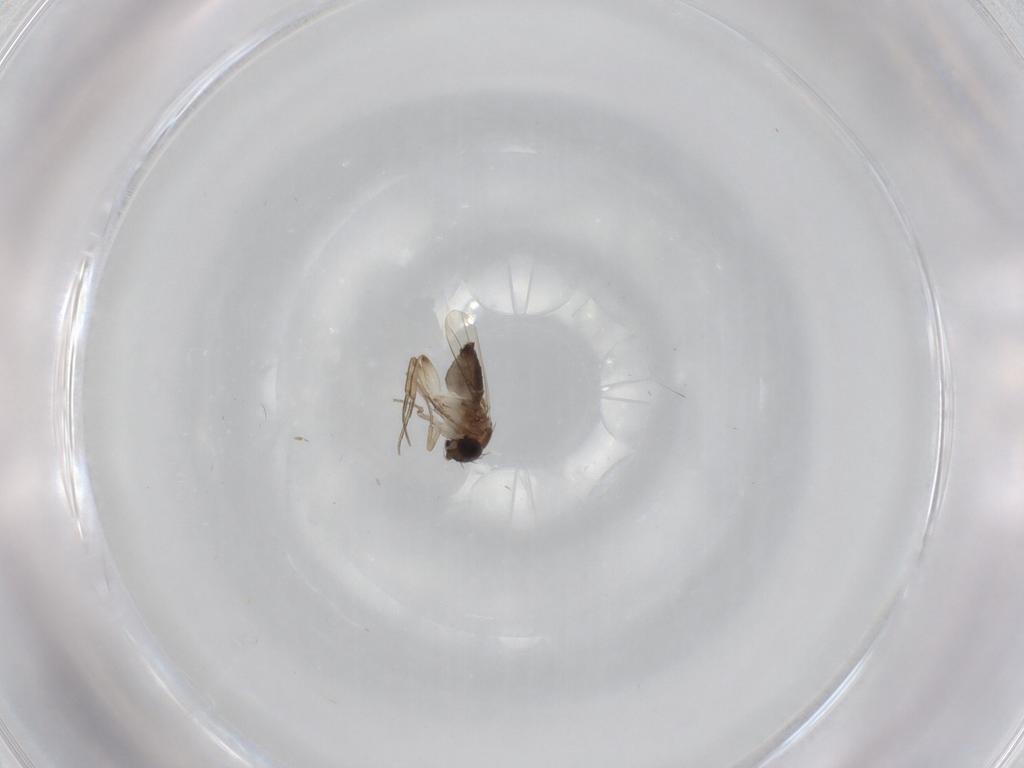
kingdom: Animalia
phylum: Arthropoda
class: Insecta
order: Diptera
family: Phoridae
